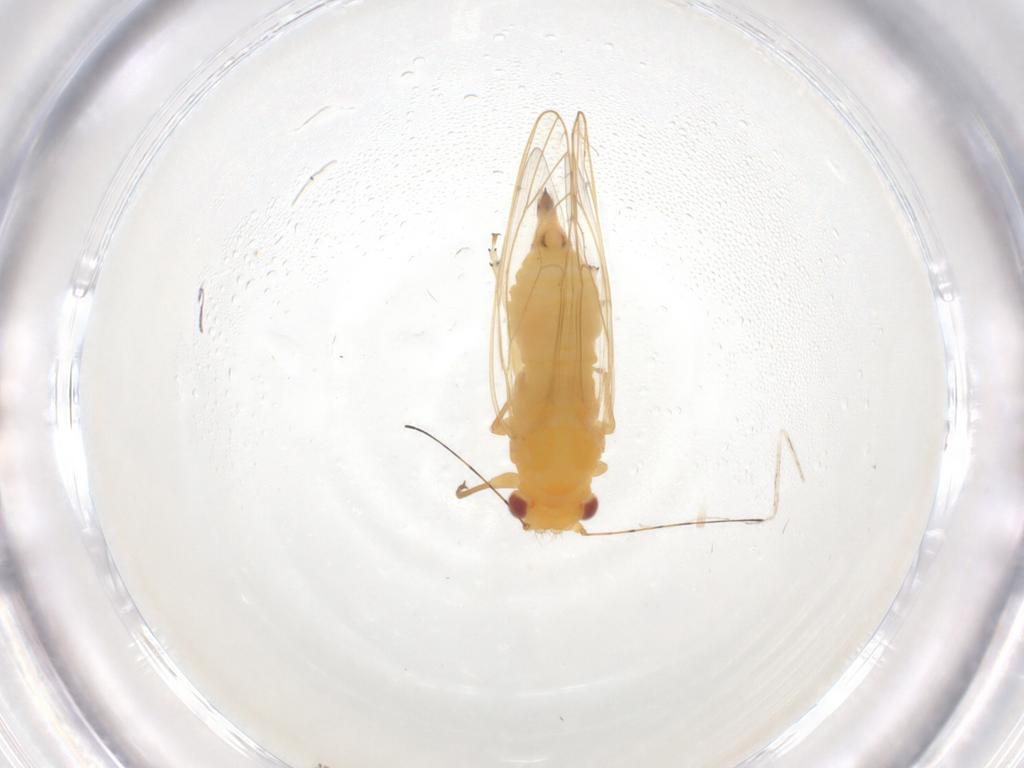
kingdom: Animalia
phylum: Arthropoda
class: Insecta
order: Hemiptera
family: Psyllidae
